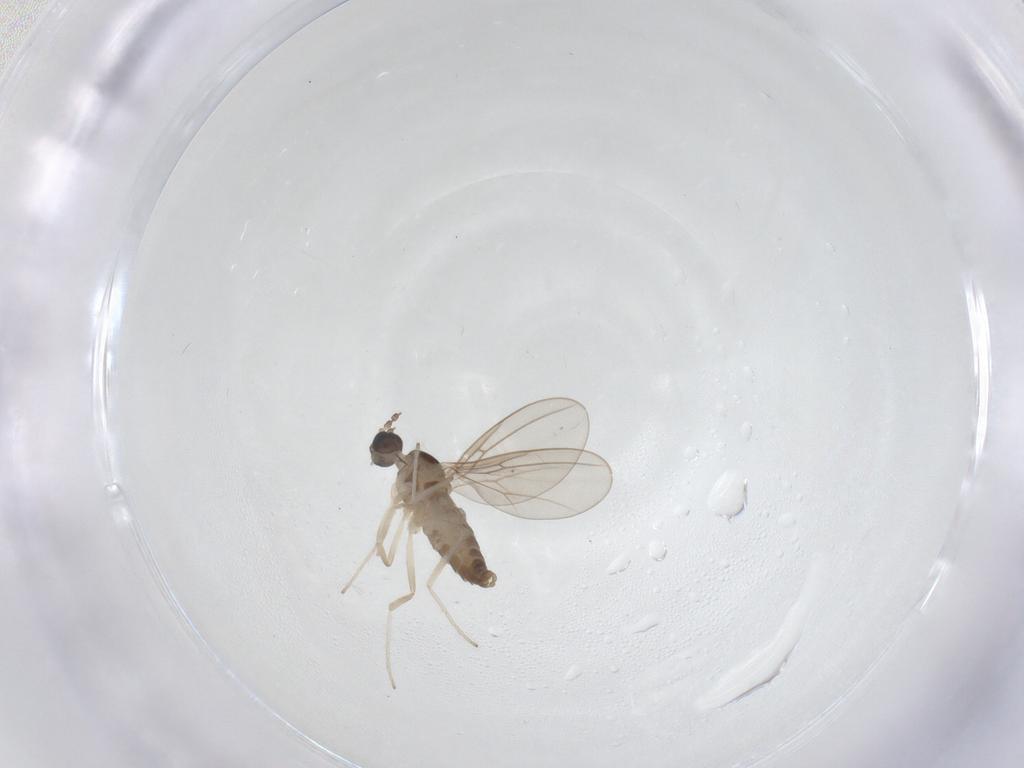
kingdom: Animalia
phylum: Arthropoda
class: Insecta
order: Diptera
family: Cecidomyiidae
